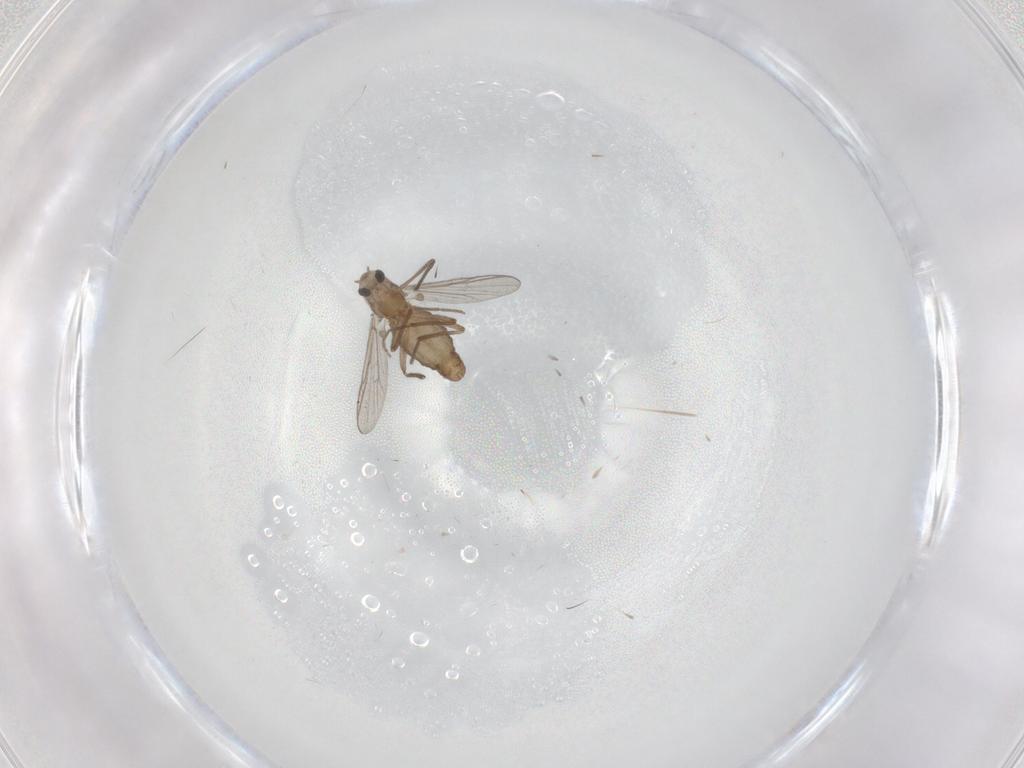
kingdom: Animalia
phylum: Arthropoda
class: Insecta
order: Diptera
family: Chironomidae
